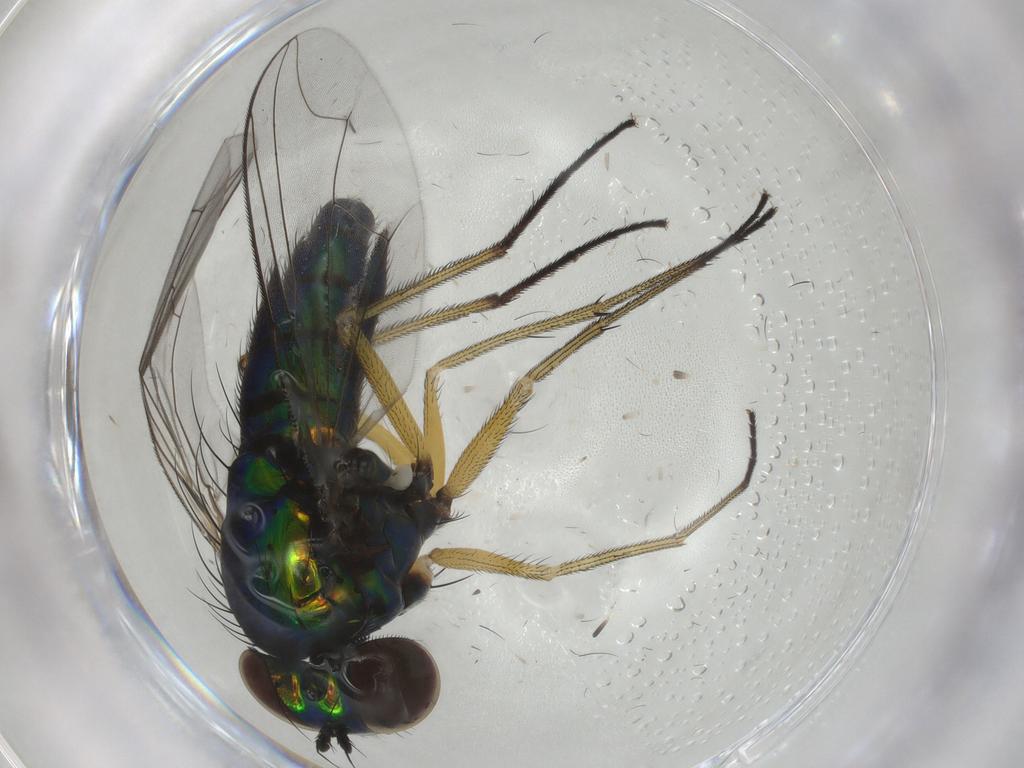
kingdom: Animalia
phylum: Arthropoda
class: Insecta
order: Diptera
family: Dolichopodidae
